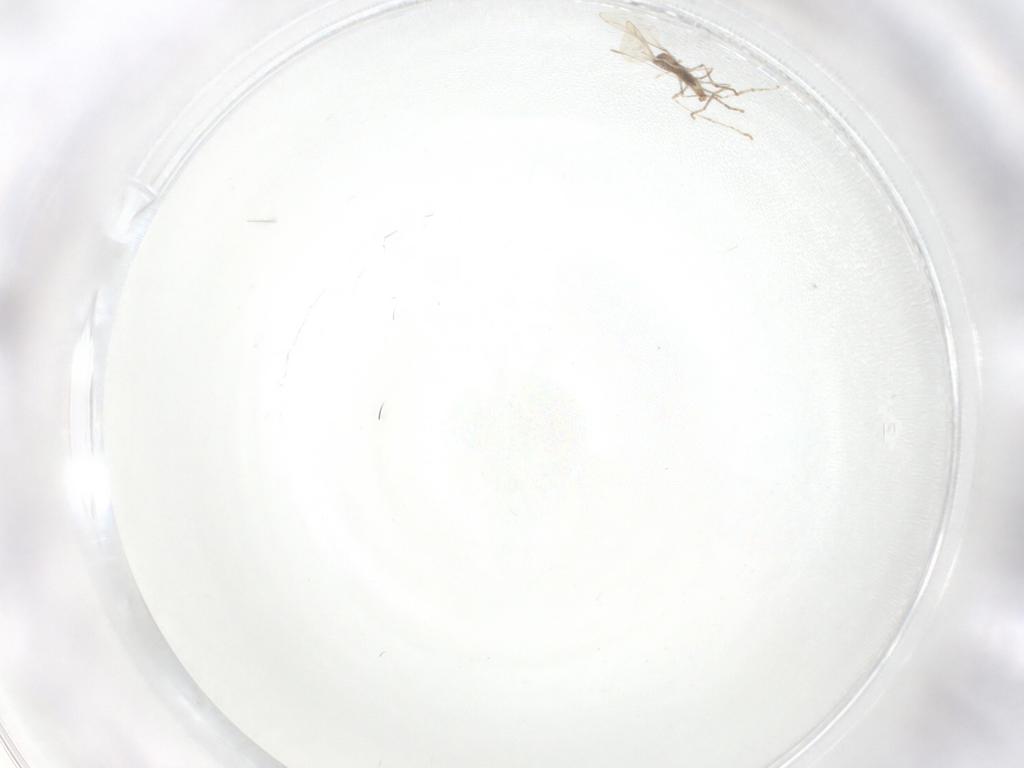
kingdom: Animalia
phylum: Arthropoda
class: Insecta
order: Diptera
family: Cecidomyiidae
